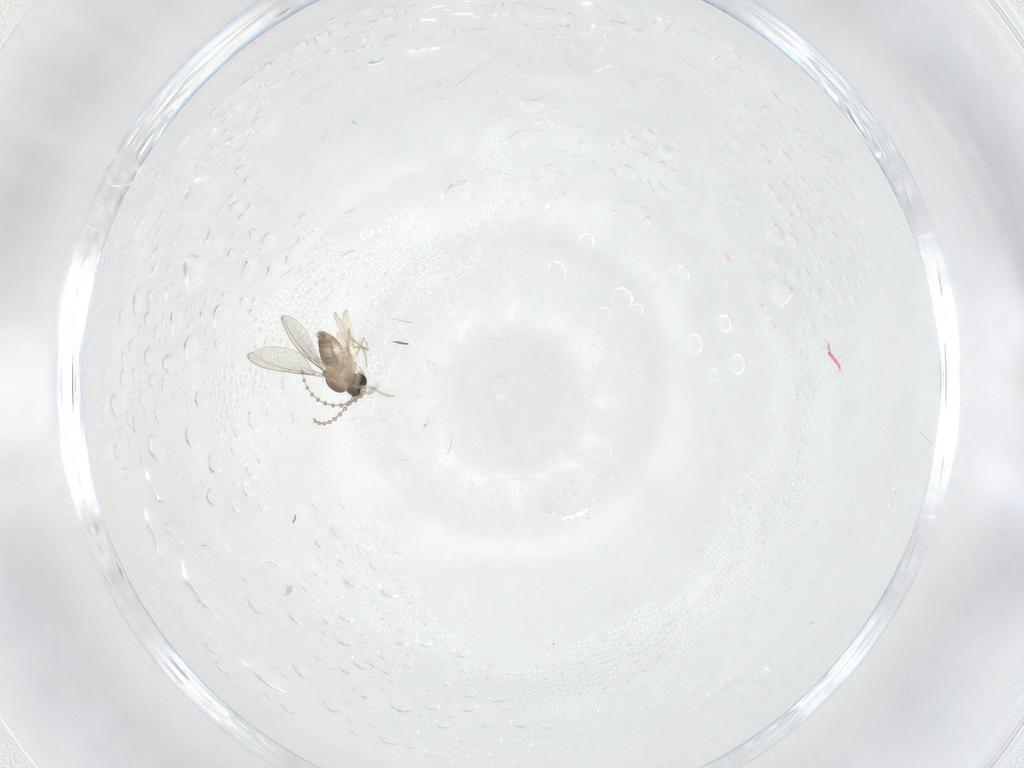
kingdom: Animalia
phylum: Arthropoda
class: Insecta
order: Diptera
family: Cecidomyiidae
